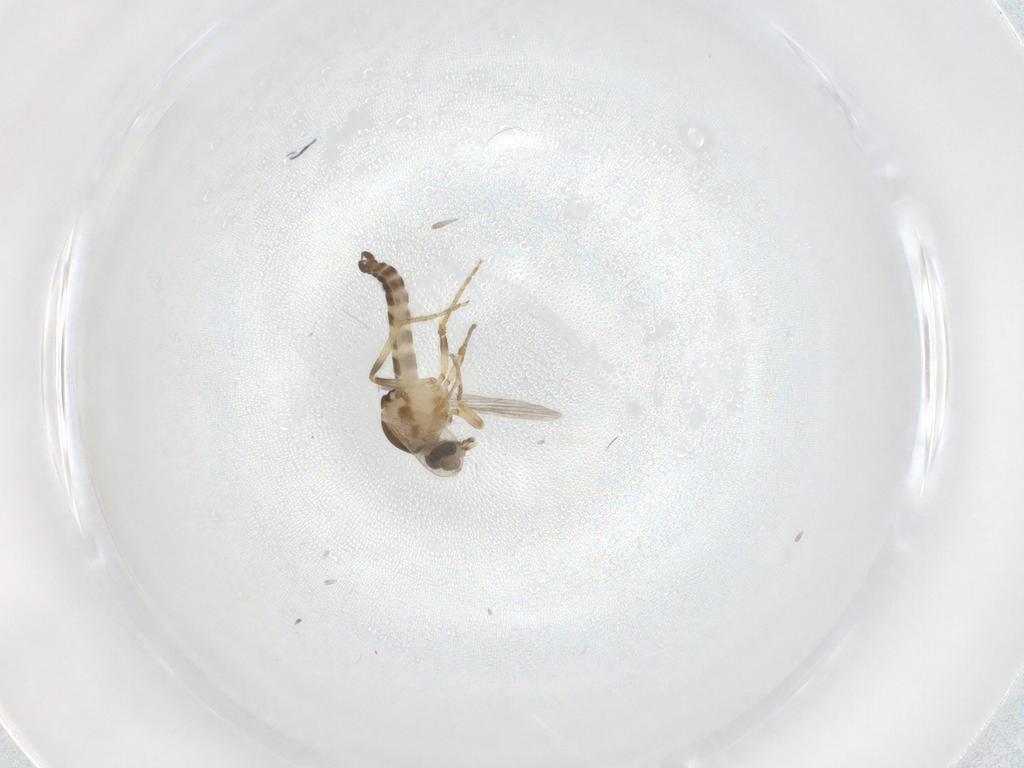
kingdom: Animalia
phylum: Arthropoda
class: Insecta
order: Diptera
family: Ceratopogonidae
